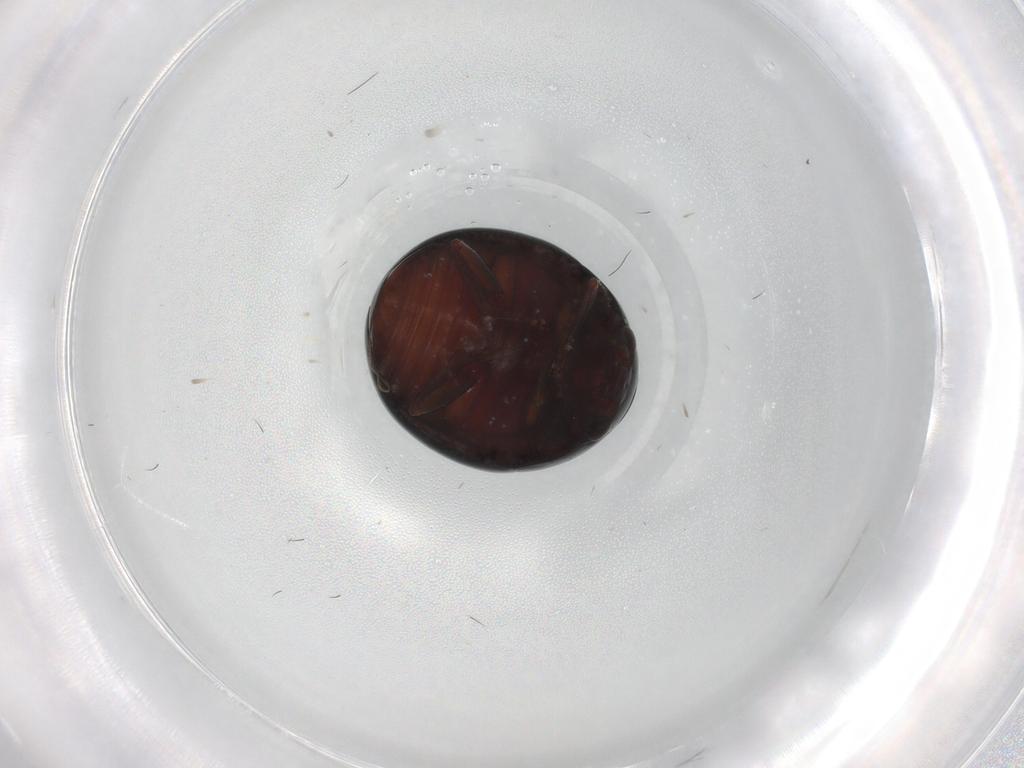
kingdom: Animalia
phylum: Arthropoda
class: Insecta
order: Coleoptera
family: Nitidulidae
